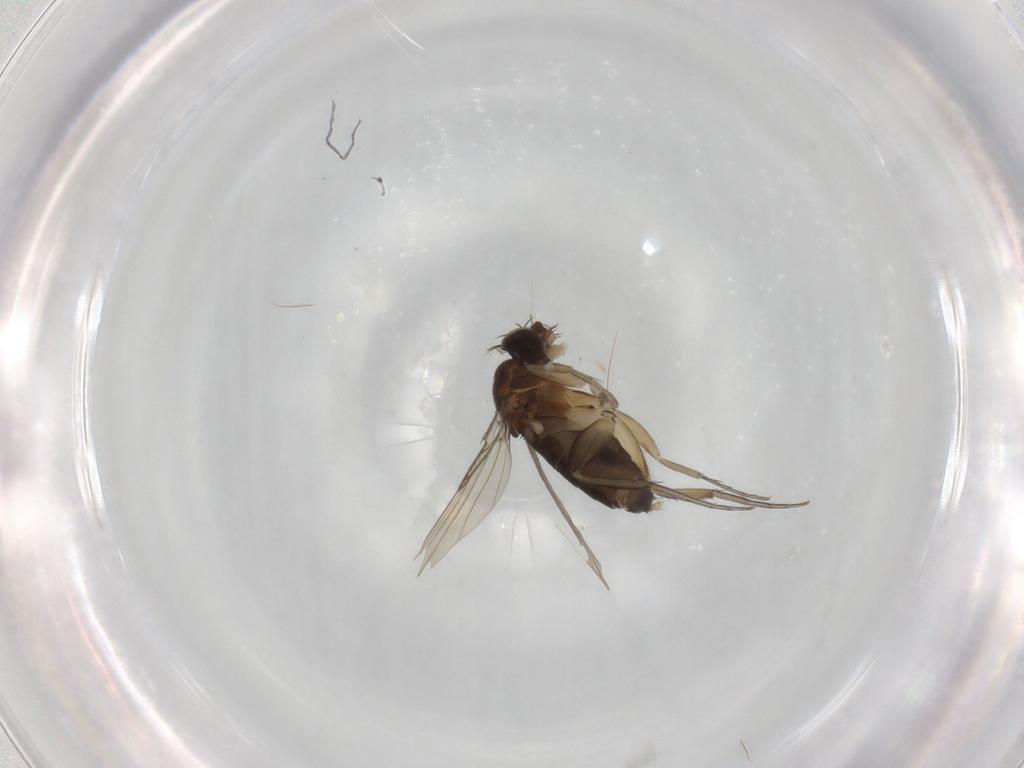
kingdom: Animalia
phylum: Arthropoda
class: Insecta
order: Diptera
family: Phoridae
